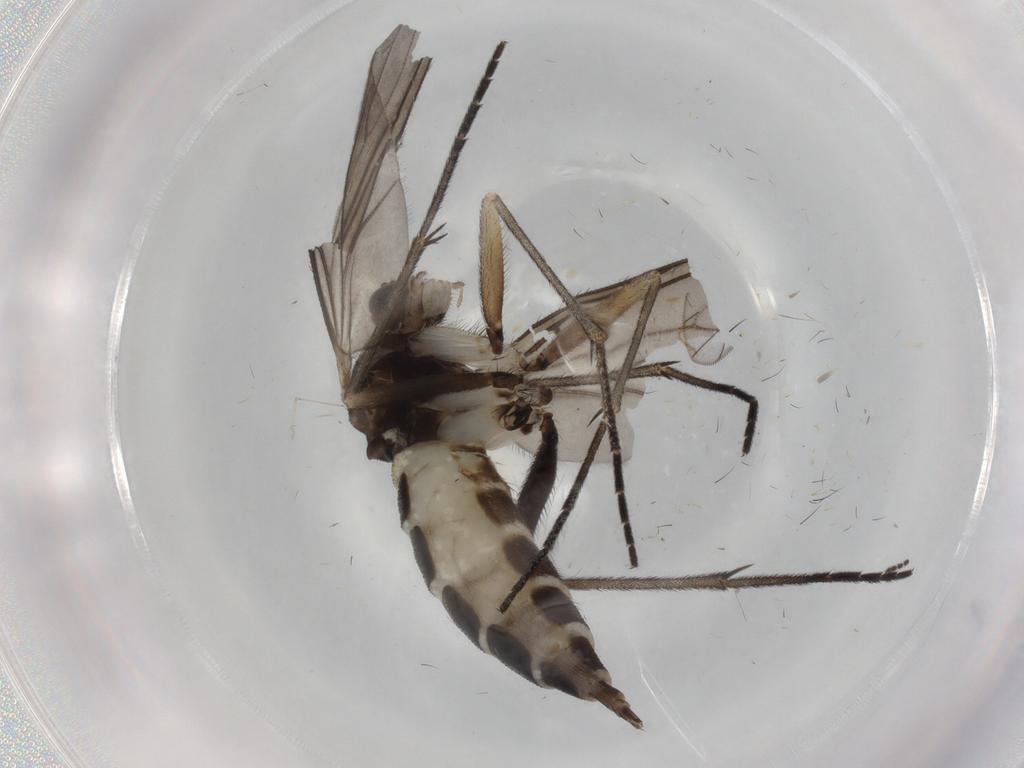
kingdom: Animalia
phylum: Arthropoda
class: Insecta
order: Diptera
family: Sciaridae
